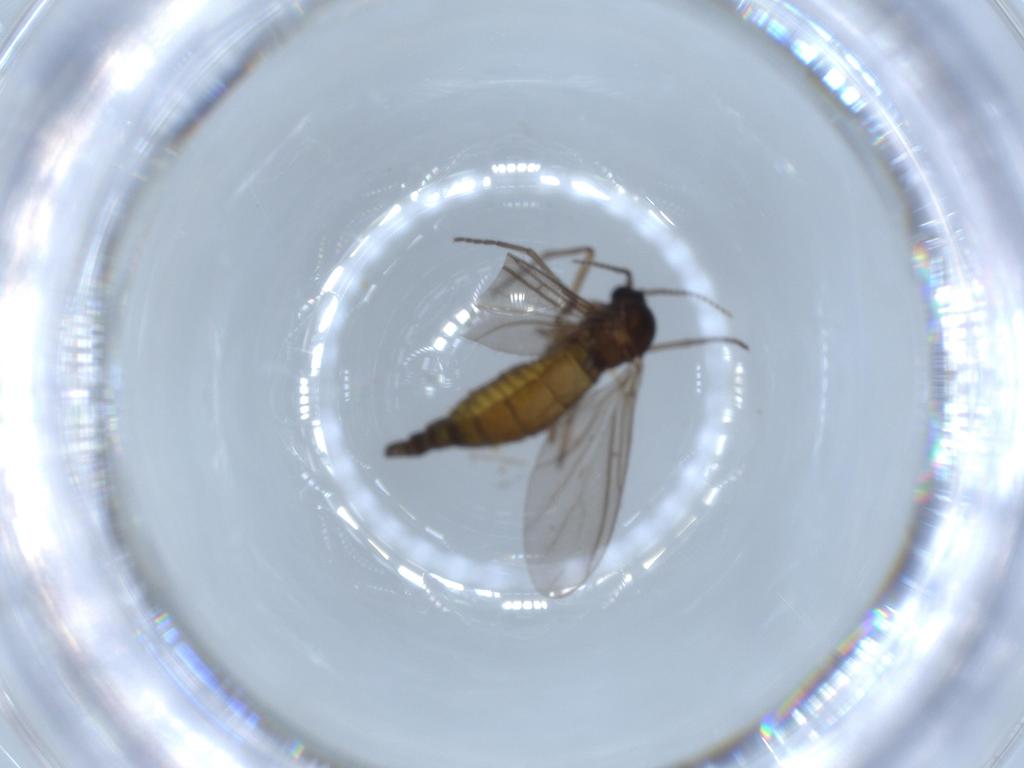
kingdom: Animalia
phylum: Arthropoda
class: Insecta
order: Diptera
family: Sciaridae
